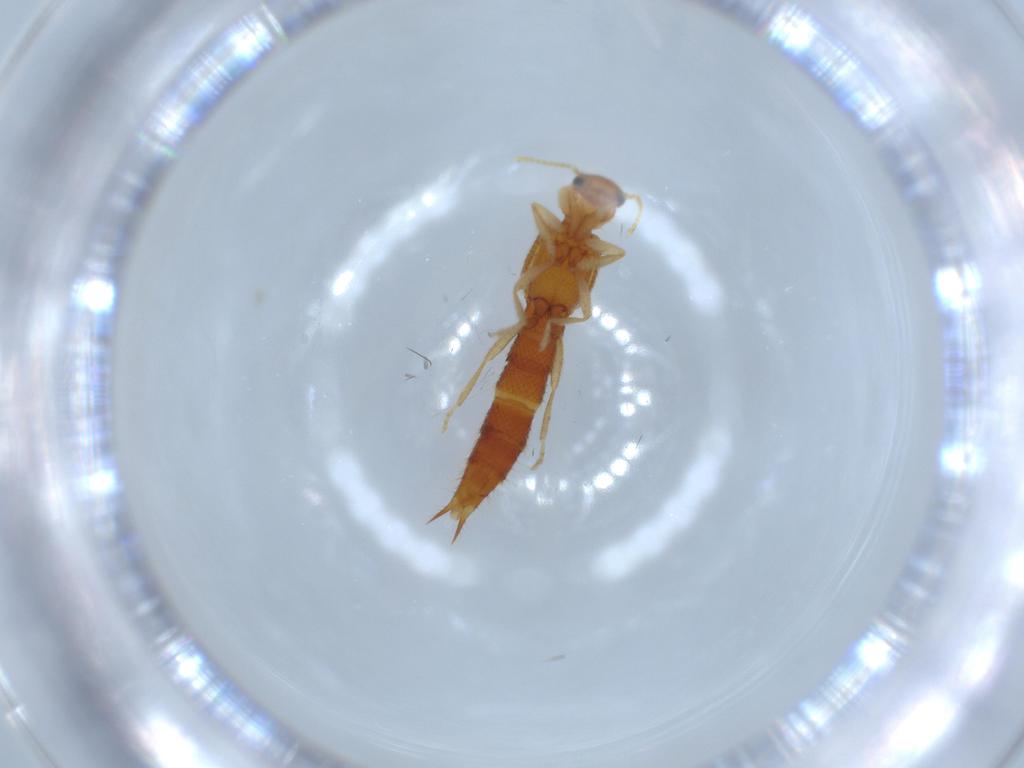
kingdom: Animalia
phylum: Arthropoda
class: Insecta
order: Coleoptera
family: Staphylinidae
